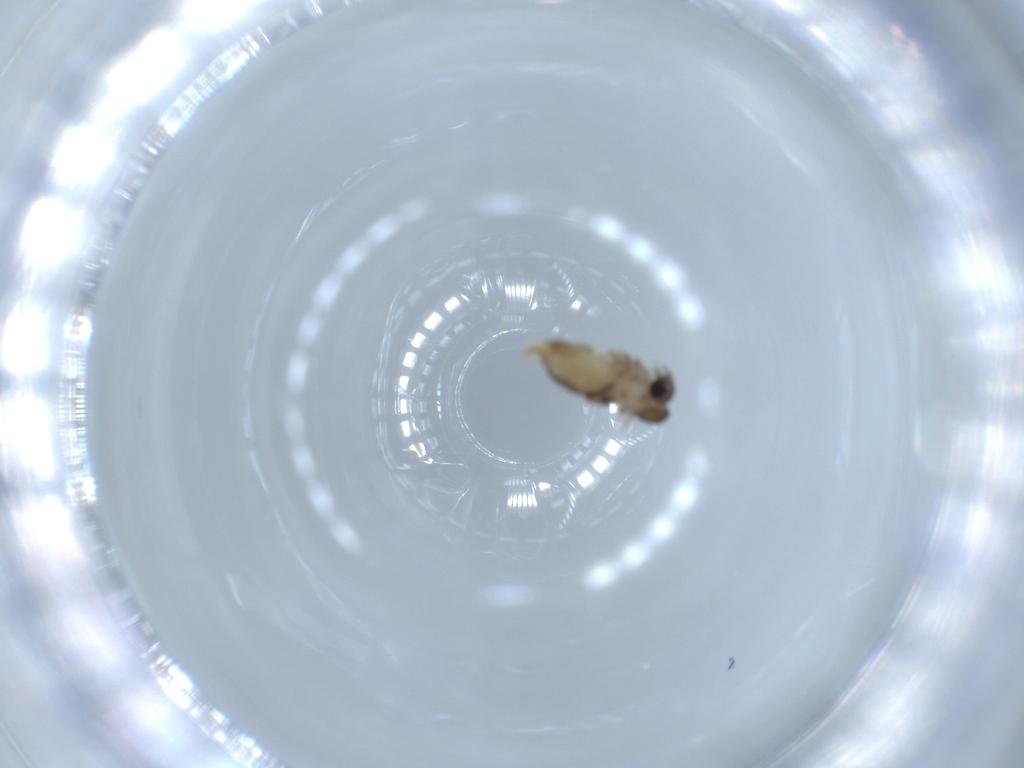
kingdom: Animalia
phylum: Arthropoda
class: Insecta
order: Diptera
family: Psychodidae
